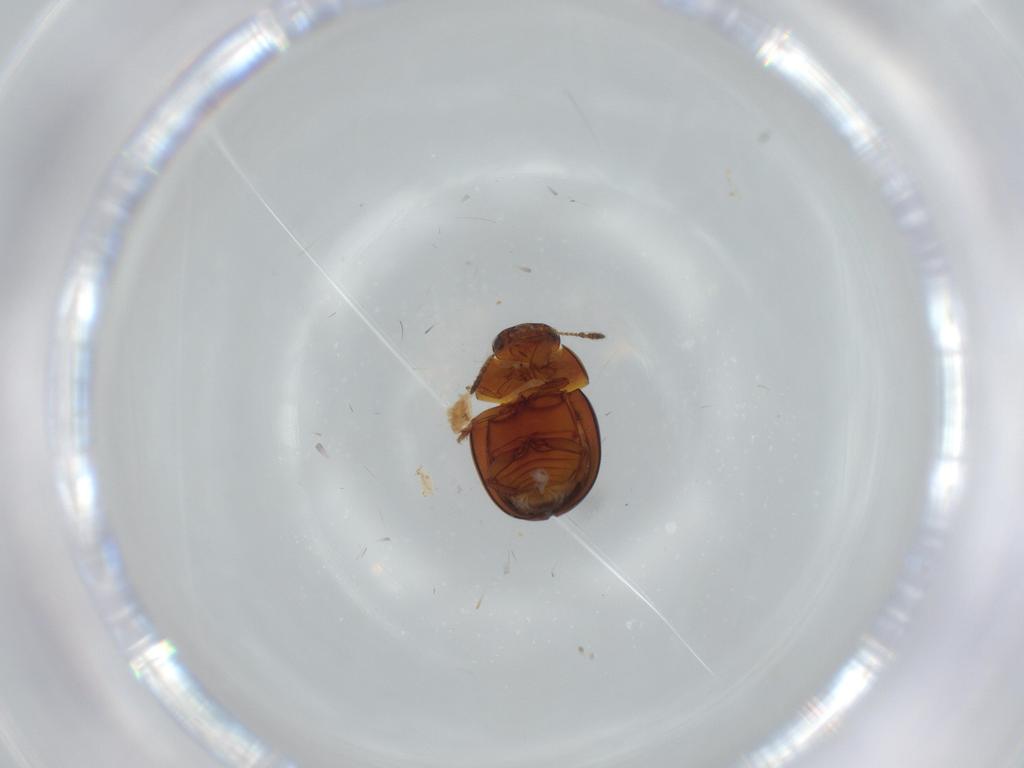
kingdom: Animalia
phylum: Arthropoda
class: Insecta
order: Coleoptera
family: Leiodidae
